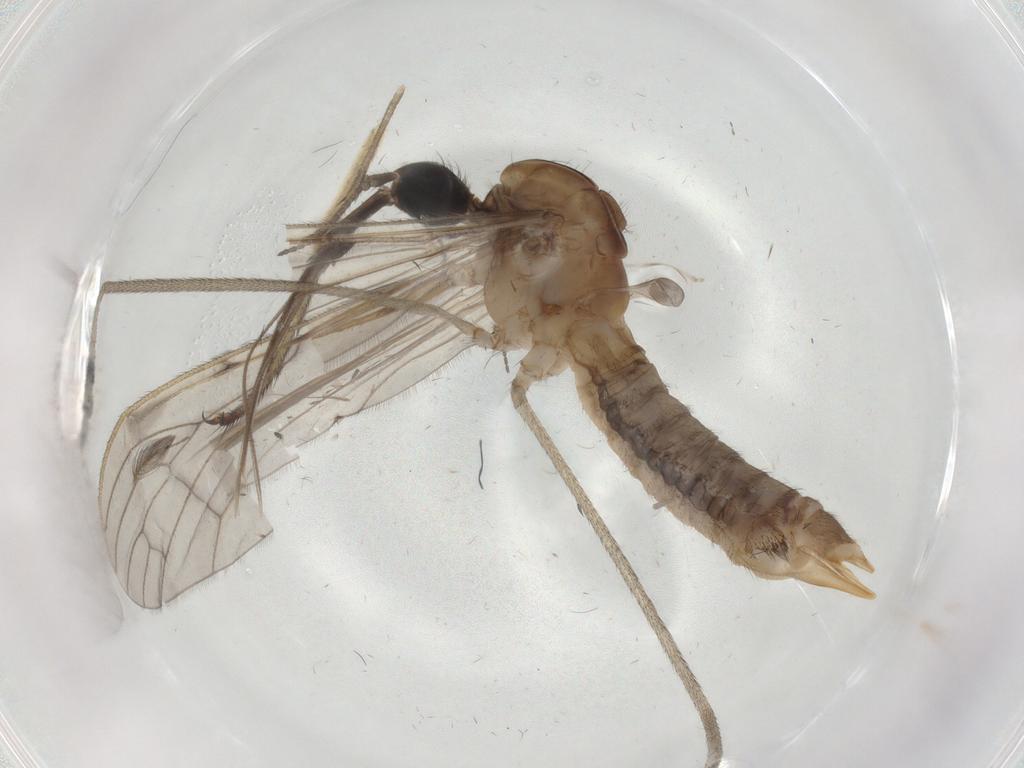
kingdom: Animalia
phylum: Arthropoda
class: Insecta
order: Diptera
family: Limoniidae
